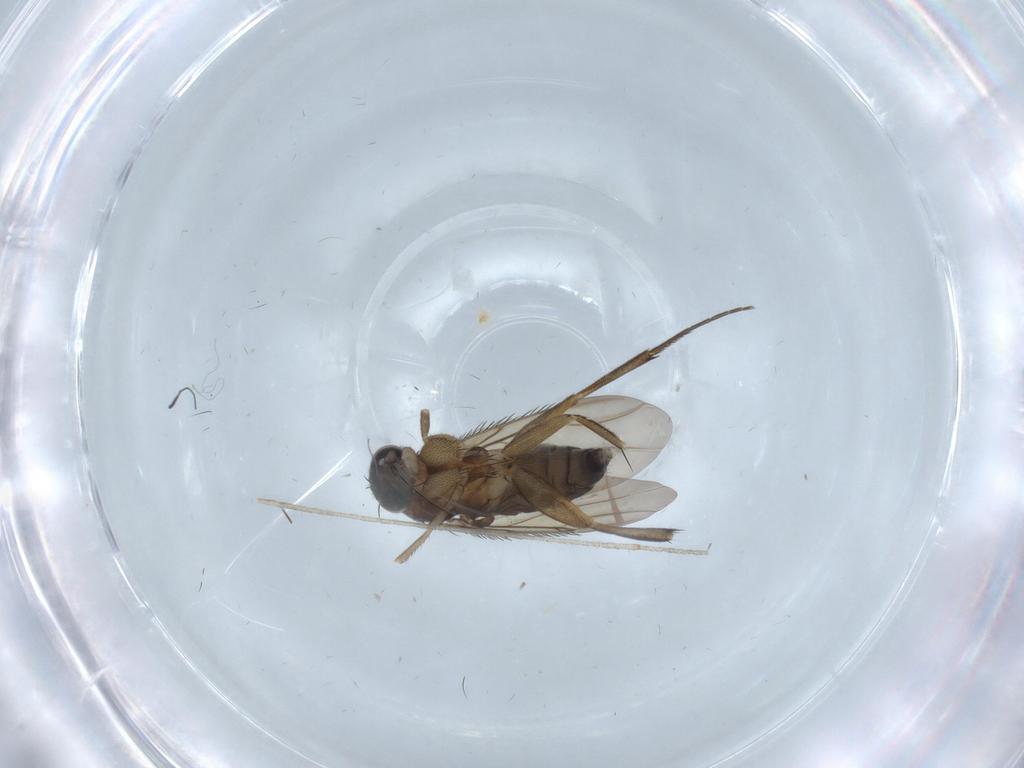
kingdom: Animalia
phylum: Arthropoda
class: Insecta
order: Diptera
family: Phoridae
